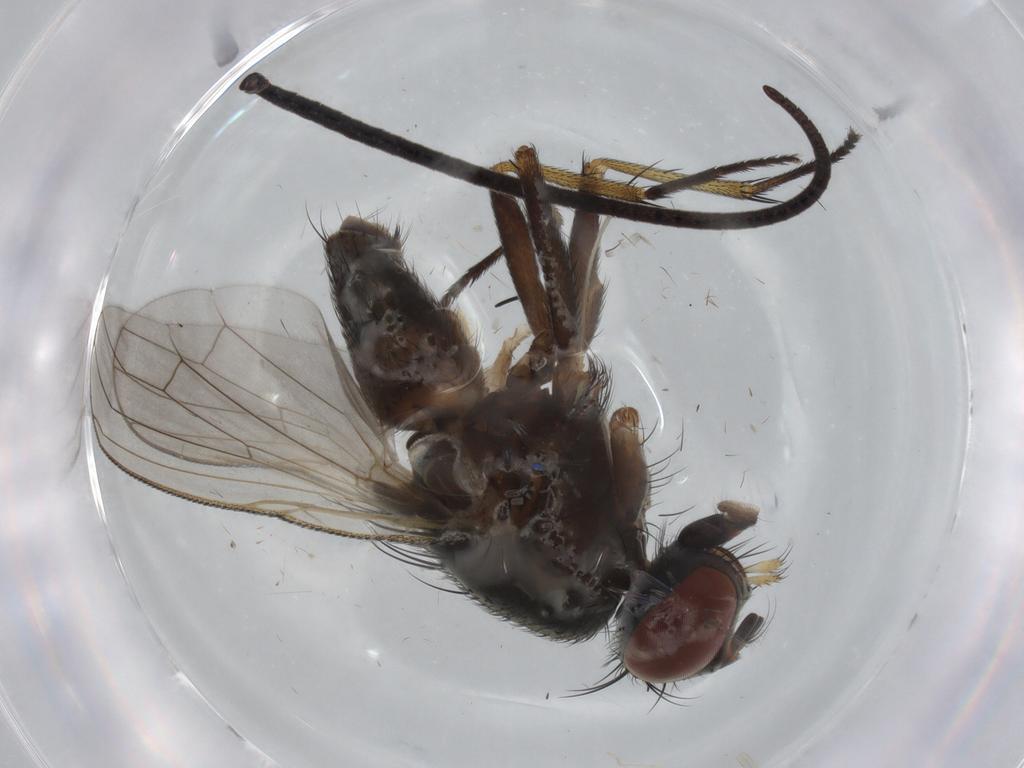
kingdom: Animalia
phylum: Arthropoda
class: Insecta
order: Diptera
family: Sciaridae
